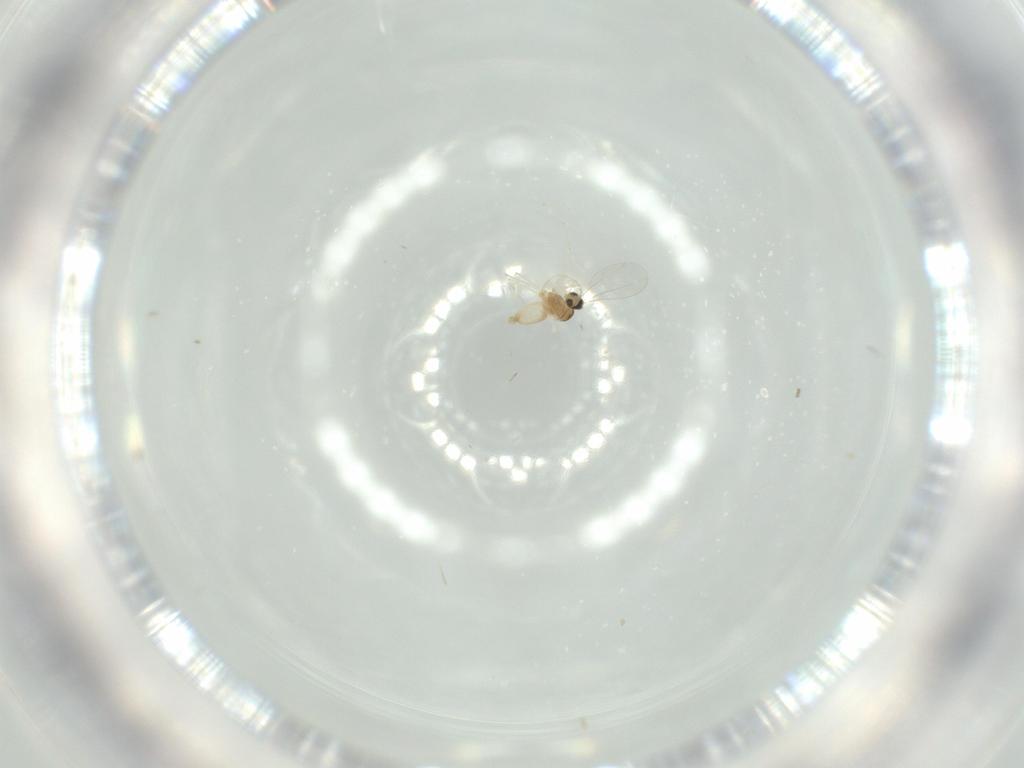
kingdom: Animalia
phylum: Arthropoda
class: Insecta
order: Diptera
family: Cecidomyiidae
